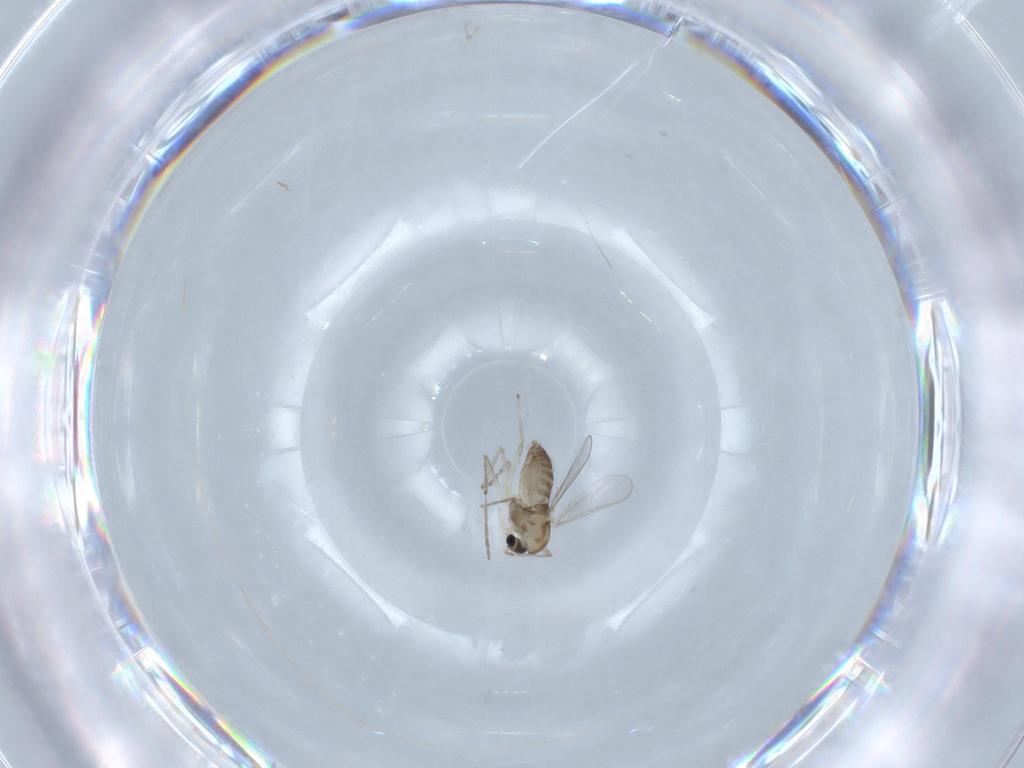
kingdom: Animalia
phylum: Arthropoda
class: Insecta
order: Diptera
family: Chironomidae
